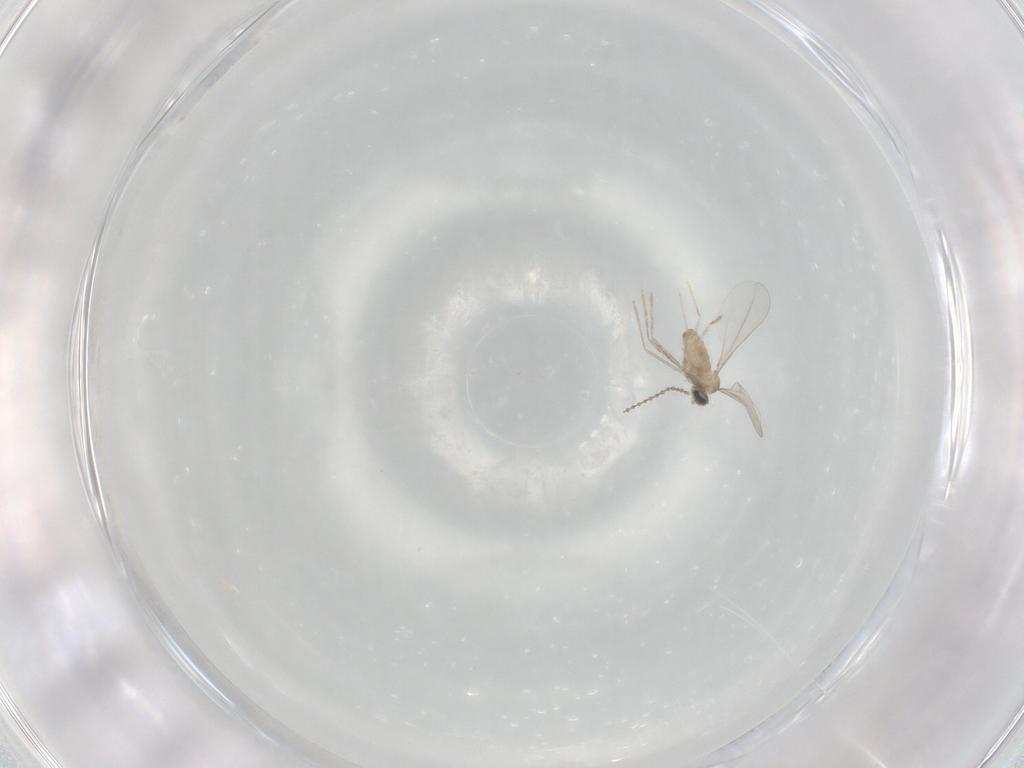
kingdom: Animalia
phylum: Arthropoda
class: Insecta
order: Diptera
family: Cecidomyiidae
